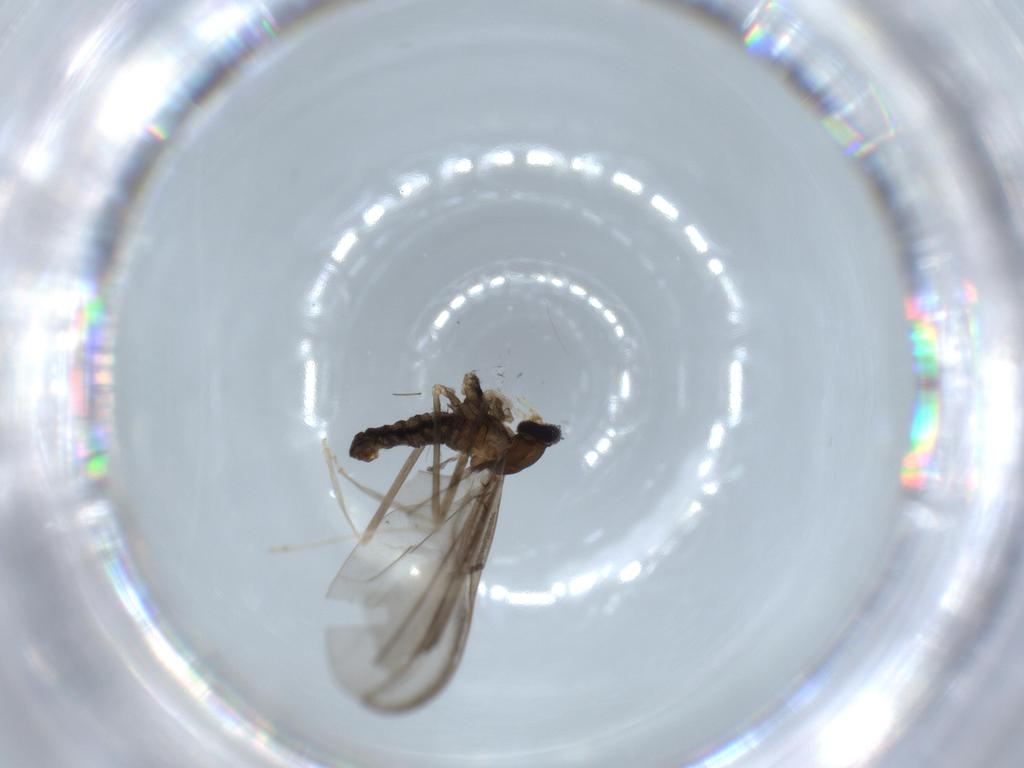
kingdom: Animalia
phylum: Arthropoda
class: Insecta
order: Diptera
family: Cecidomyiidae
